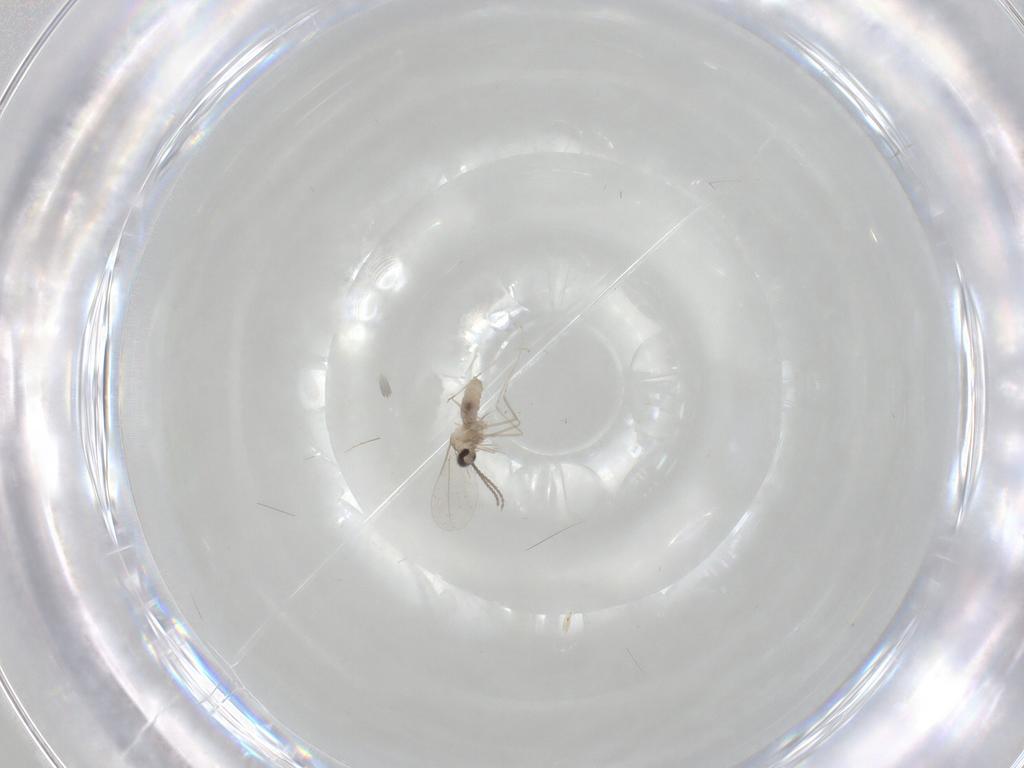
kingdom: Animalia
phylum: Arthropoda
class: Insecta
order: Diptera
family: Cecidomyiidae
